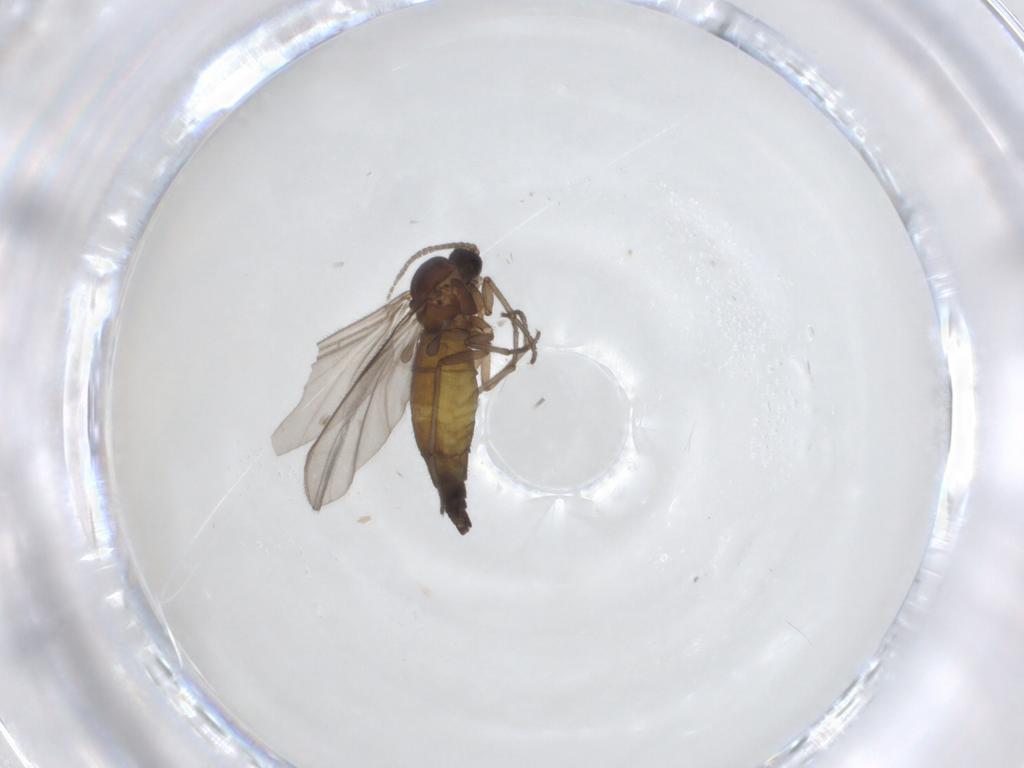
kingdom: Animalia
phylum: Arthropoda
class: Insecta
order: Diptera
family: Sciaridae
